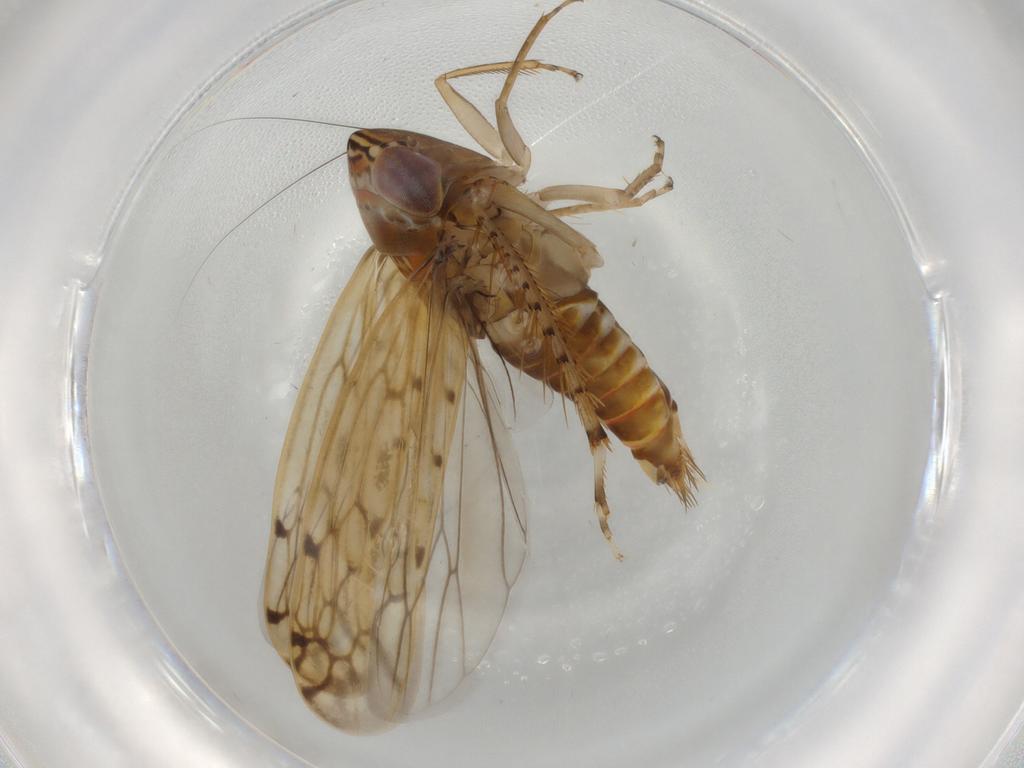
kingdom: Animalia
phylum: Arthropoda
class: Insecta
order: Hemiptera
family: Cicadellidae
